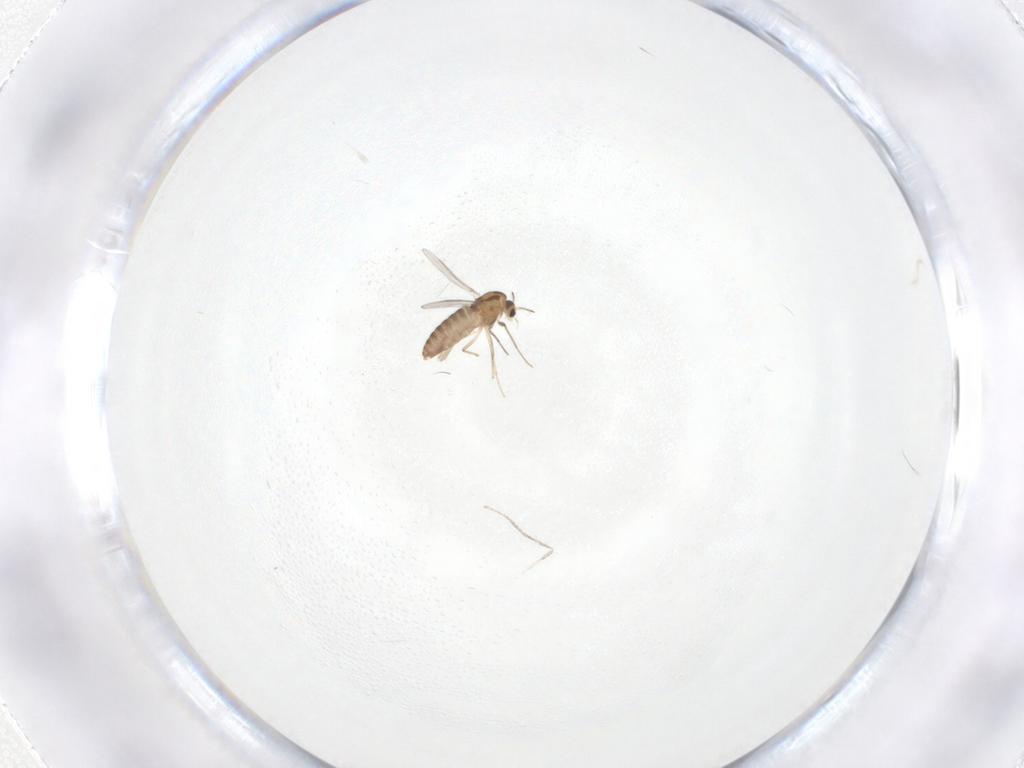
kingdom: Animalia
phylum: Arthropoda
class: Insecta
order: Diptera
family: Chironomidae
